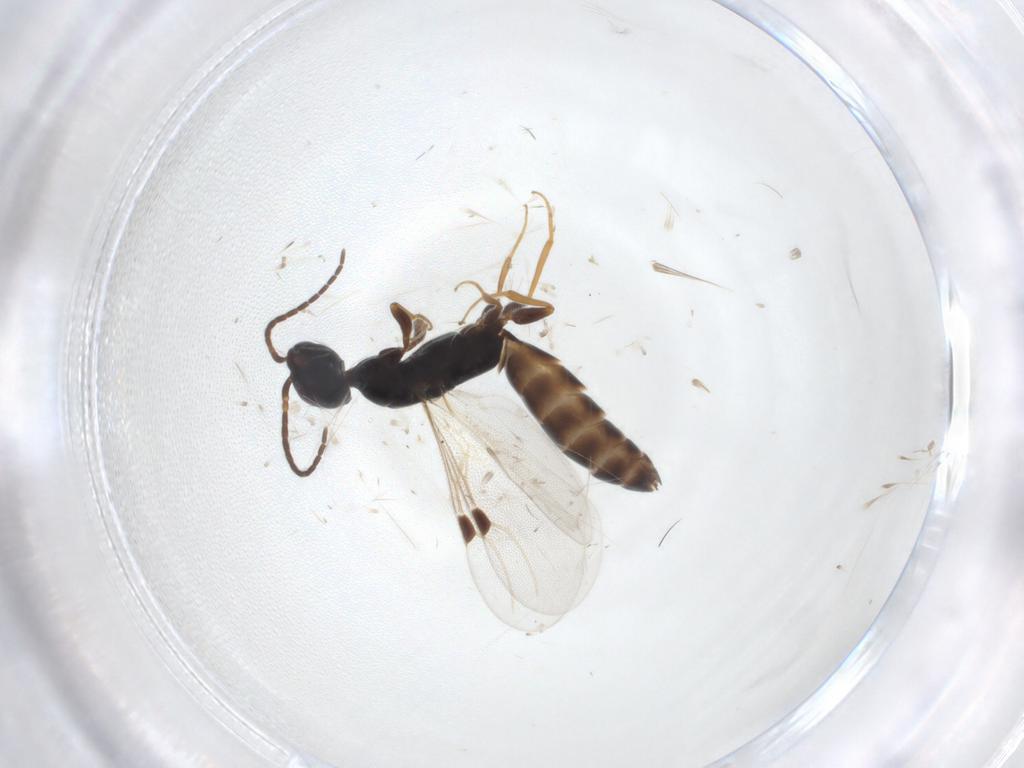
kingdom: Animalia
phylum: Arthropoda
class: Insecta
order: Hymenoptera
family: Bethylidae
